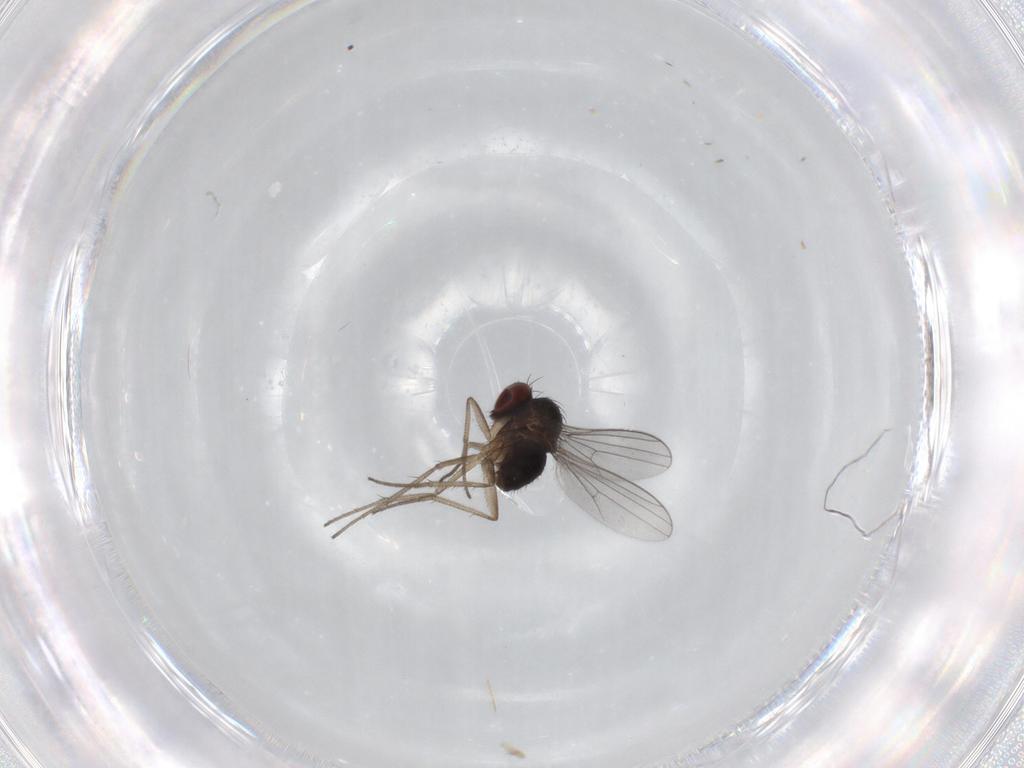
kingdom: Animalia
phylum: Arthropoda
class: Insecta
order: Diptera
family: Dolichopodidae
